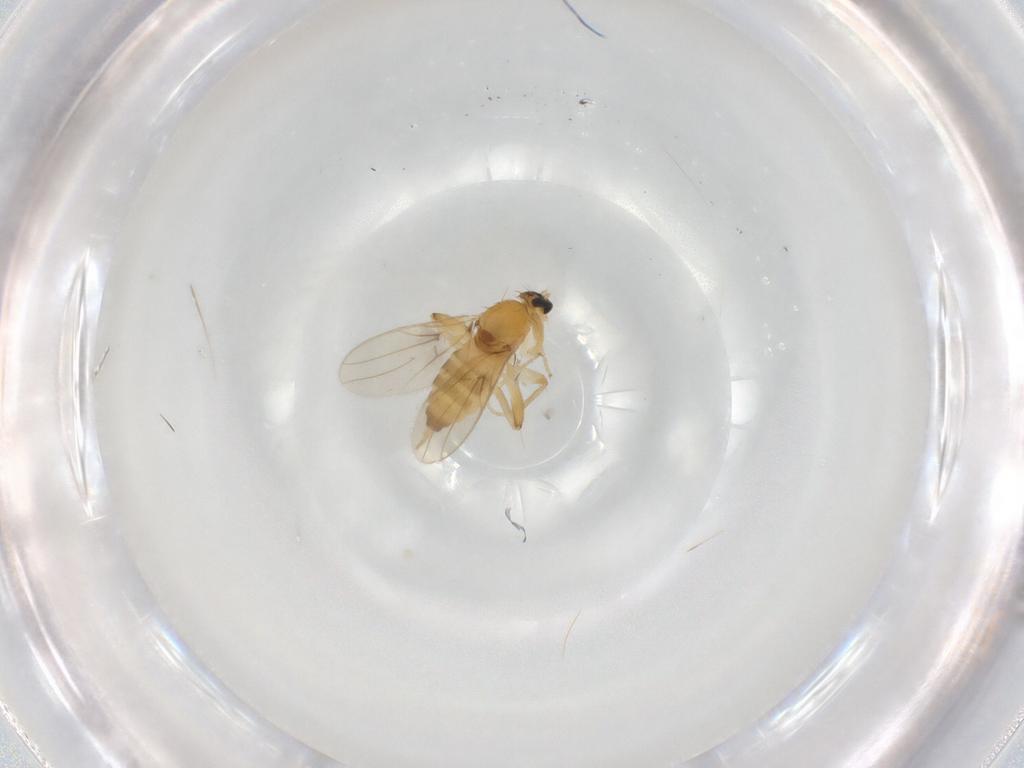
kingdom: Animalia
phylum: Arthropoda
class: Insecta
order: Diptera
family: Hybotidae
